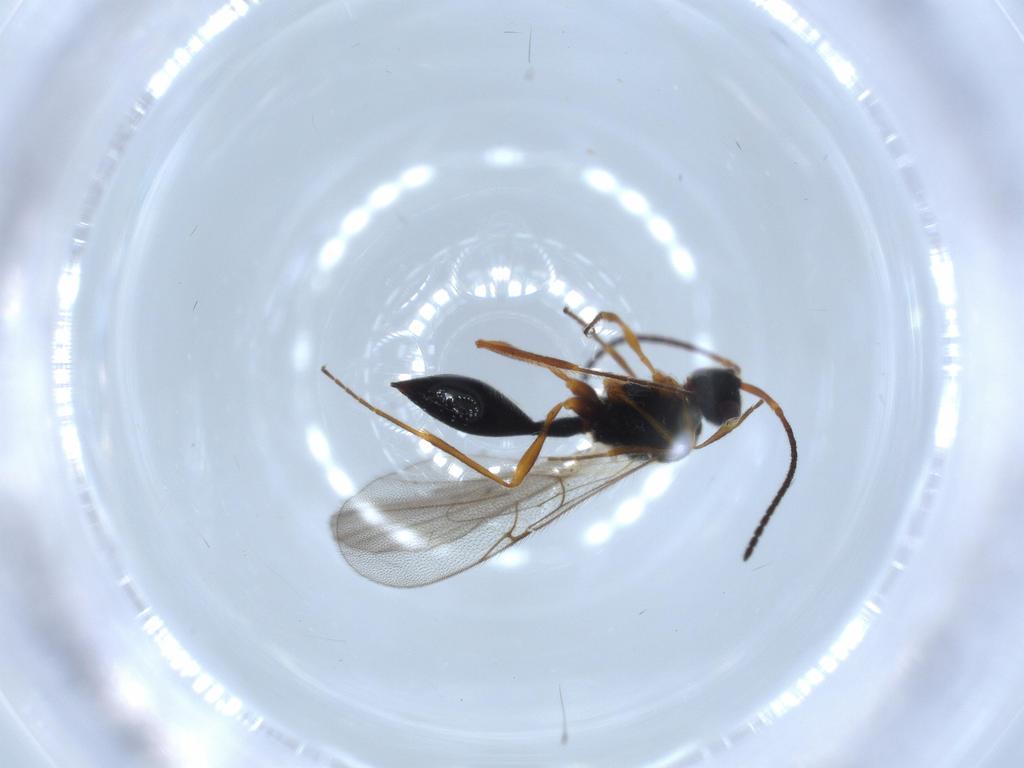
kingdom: Animalia
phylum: Arthropoda
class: Insecta
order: Hymenoptera
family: Diapriidae
